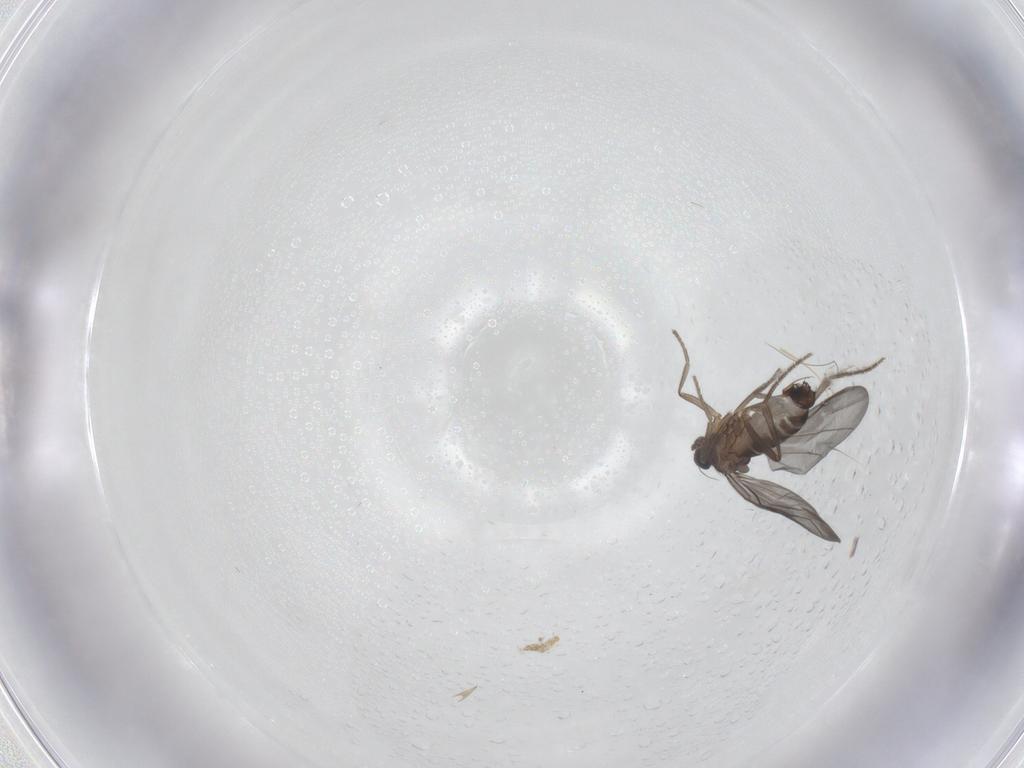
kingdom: Animalia
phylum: Arthropoda
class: Insecta
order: Diptera
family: Phoridae
